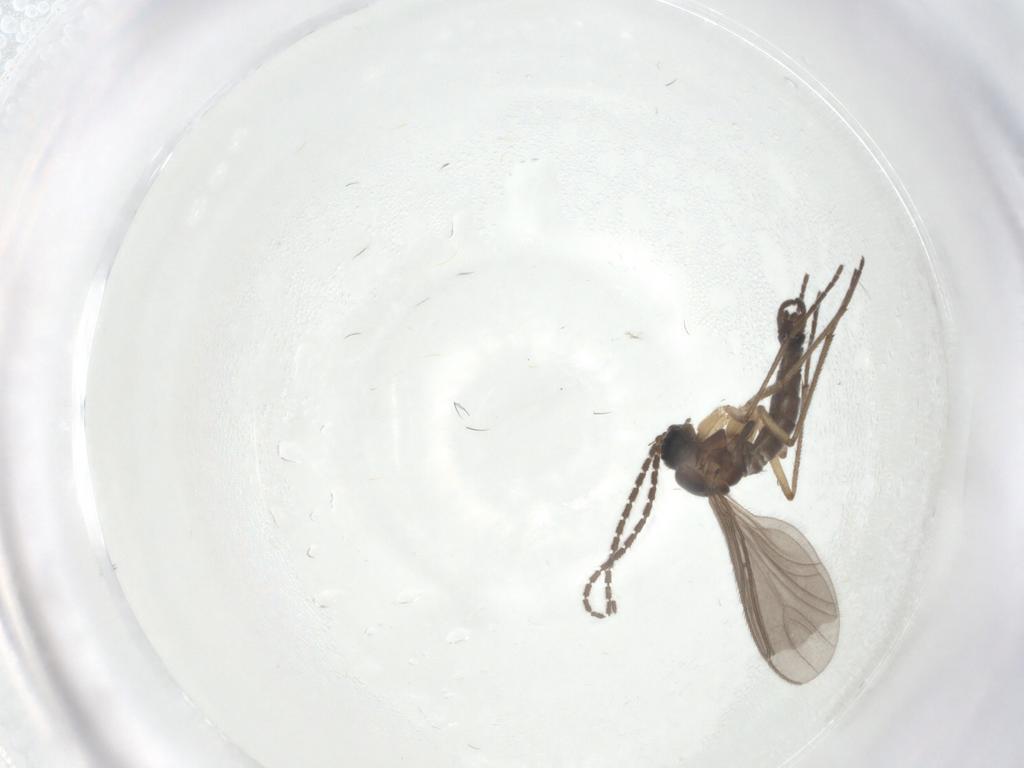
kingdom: Animalia
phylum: Arthropoda
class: Insecta
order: Diptera
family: Sciaridae
